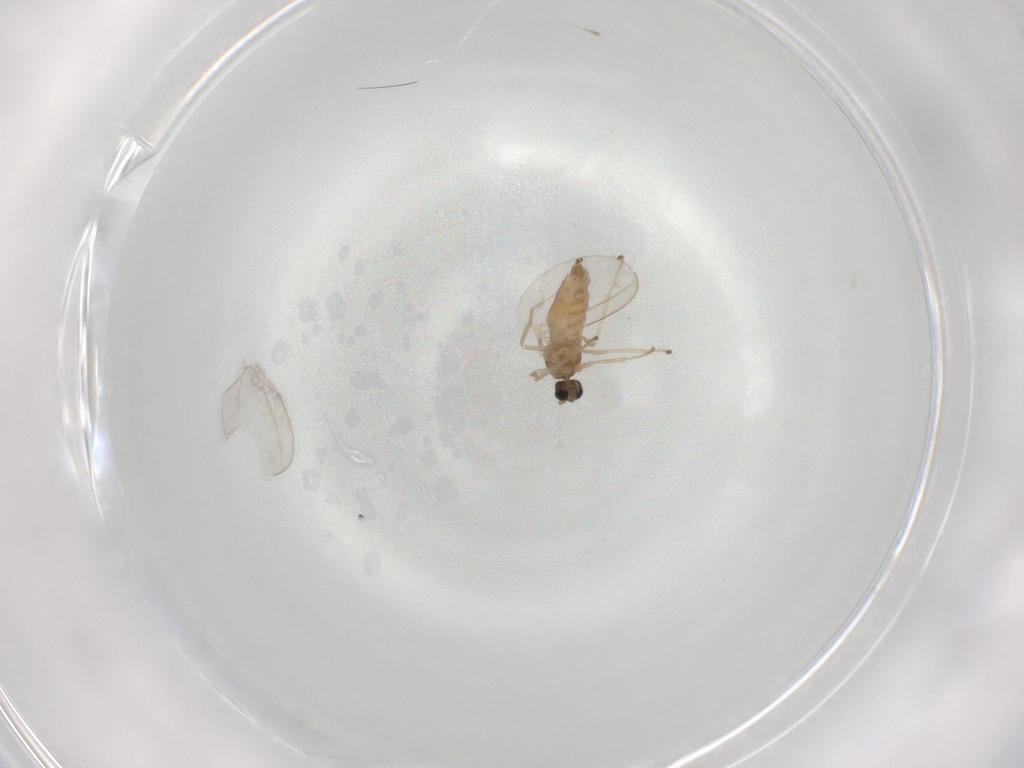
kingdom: Animalia
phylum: Arthropoda
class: Insecta
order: Diptera
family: Cecidomyiidae
